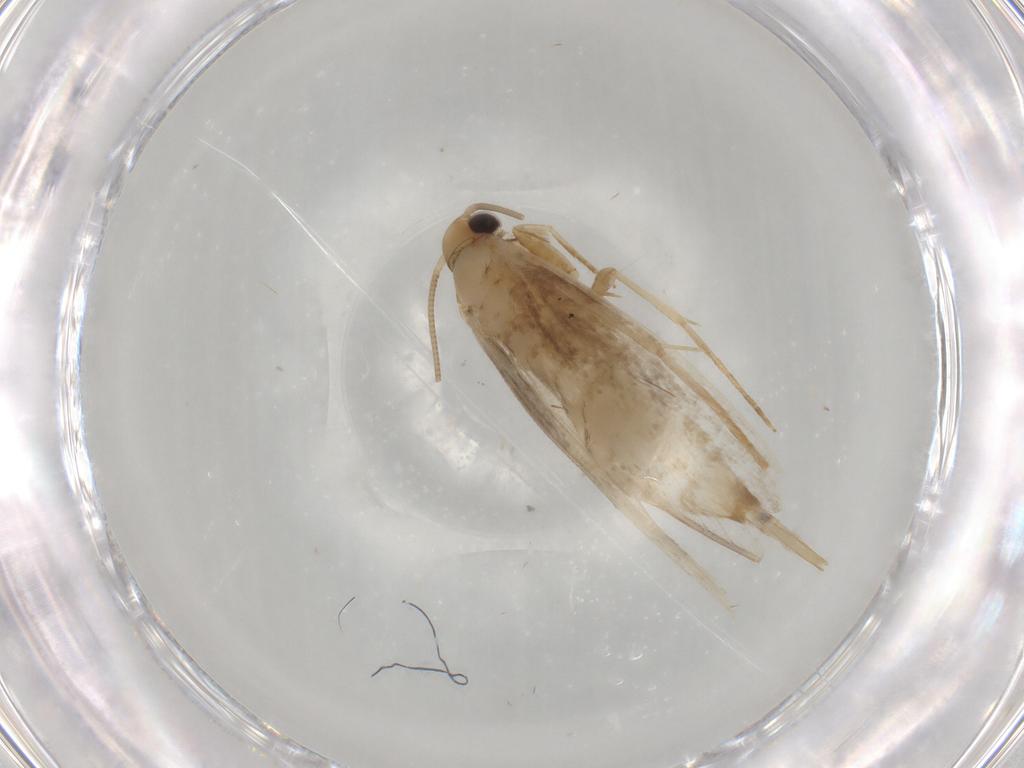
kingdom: Animalia
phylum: Arthropoda
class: Insecta
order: Lepidoptera
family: Tineidae
